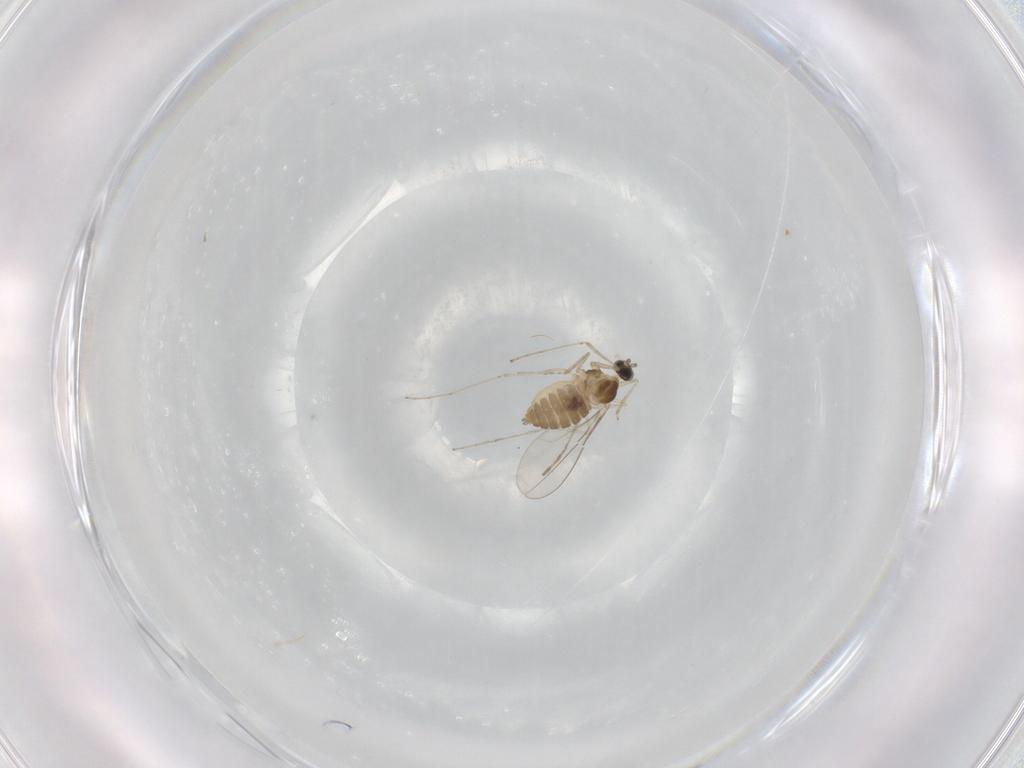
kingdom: Animalia
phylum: Arthropoda
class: Insecta
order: Diptera
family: Cecidomyiidae
